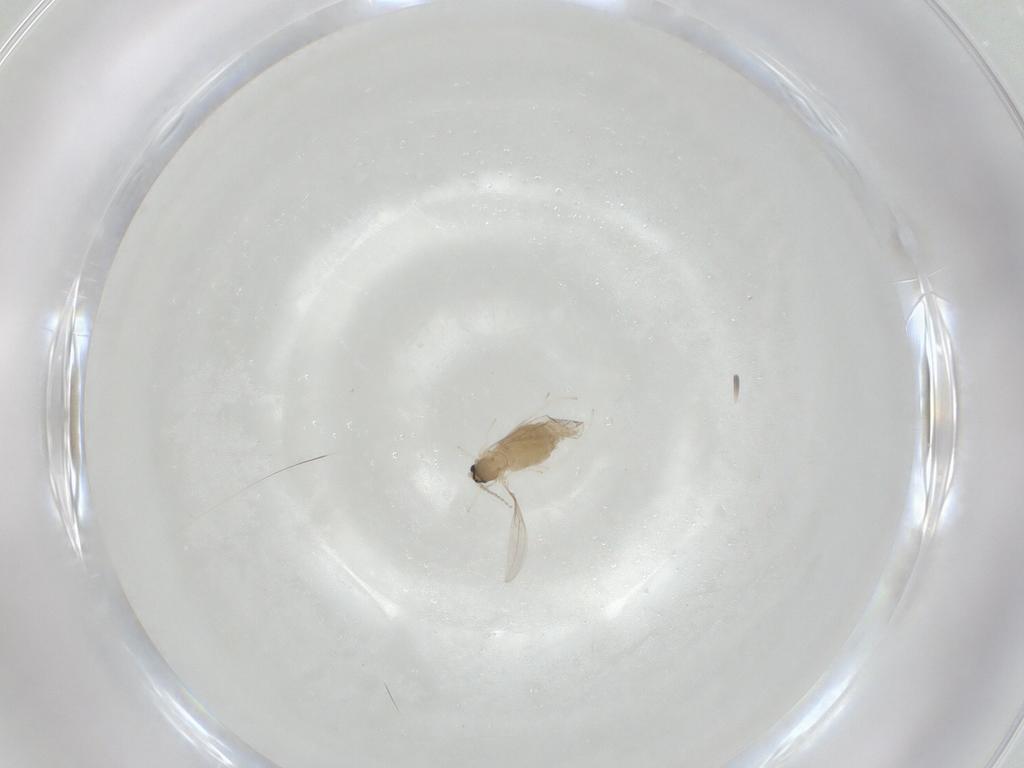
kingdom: Animalia
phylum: Arthropoda
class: Insecta
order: Diptera
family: Cecidomyiidae
